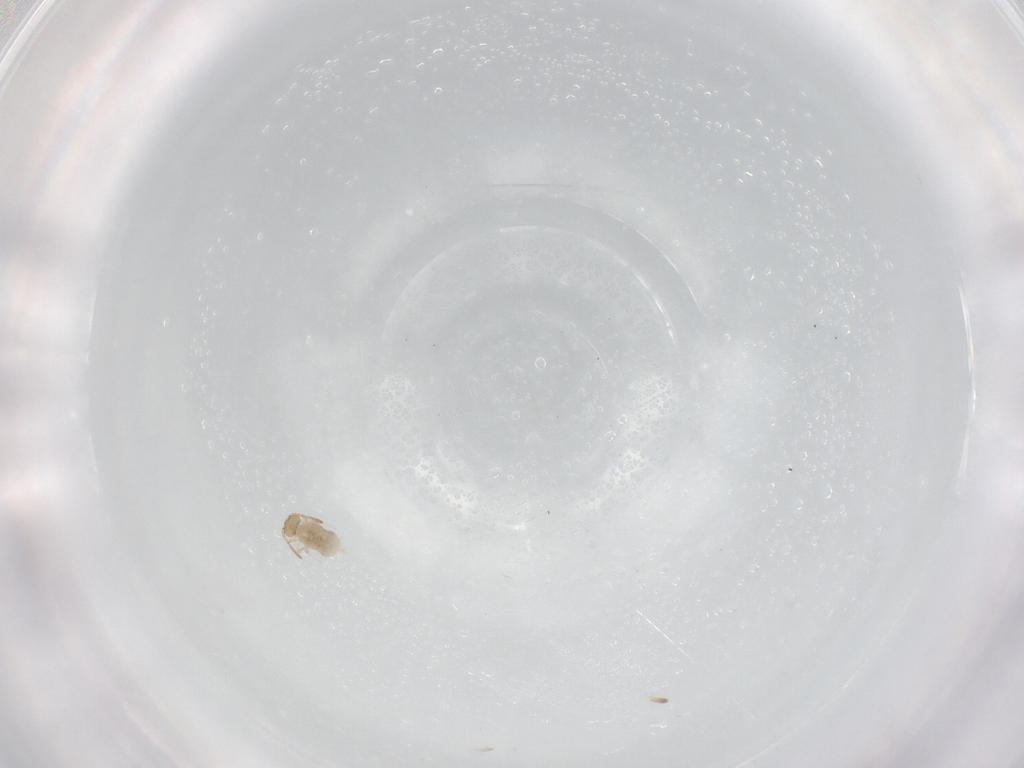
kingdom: Animalia
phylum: Arthropoda
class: Collembola
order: Symphypleona
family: Bourletiellidae
